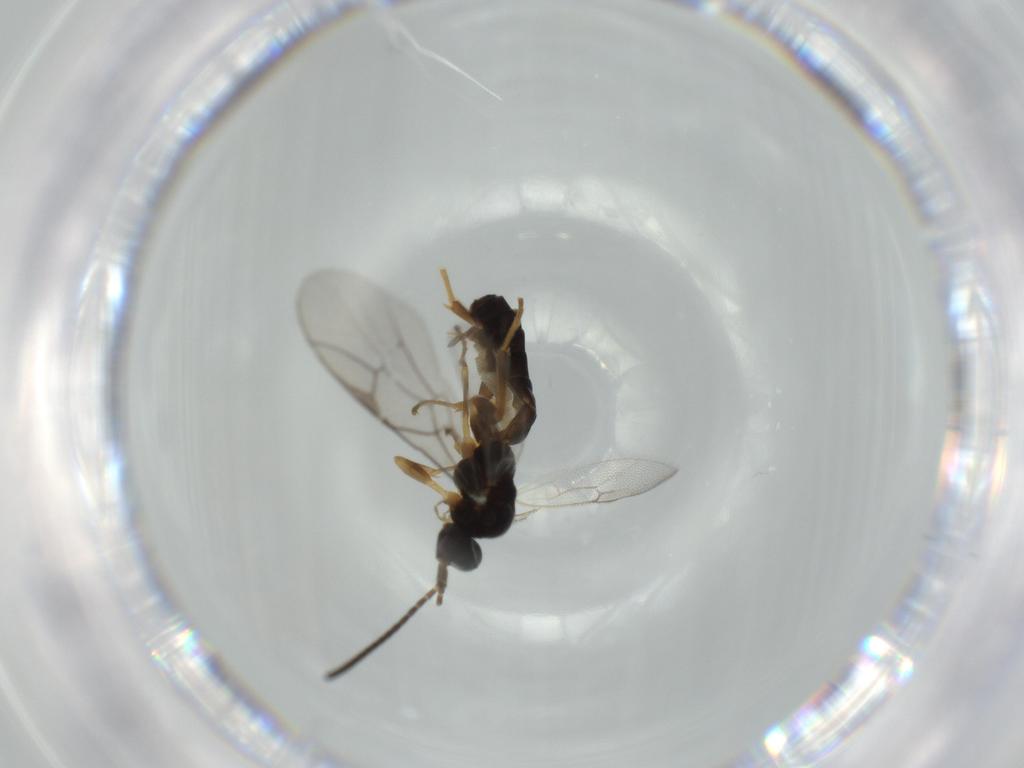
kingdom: Animalia
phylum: Arthropoda
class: Insecta
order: Hymenoptera
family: Ichneumonidae
